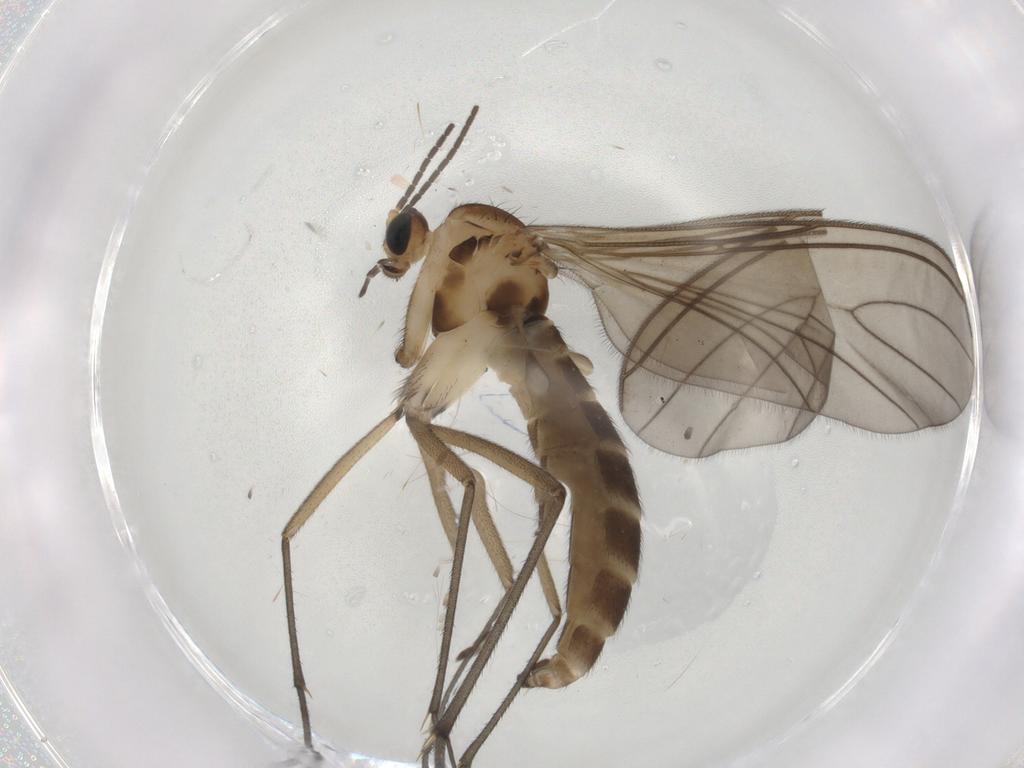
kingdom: Animalia
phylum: Arthropoda
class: Insecta
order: Diptera
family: Sciaridae
